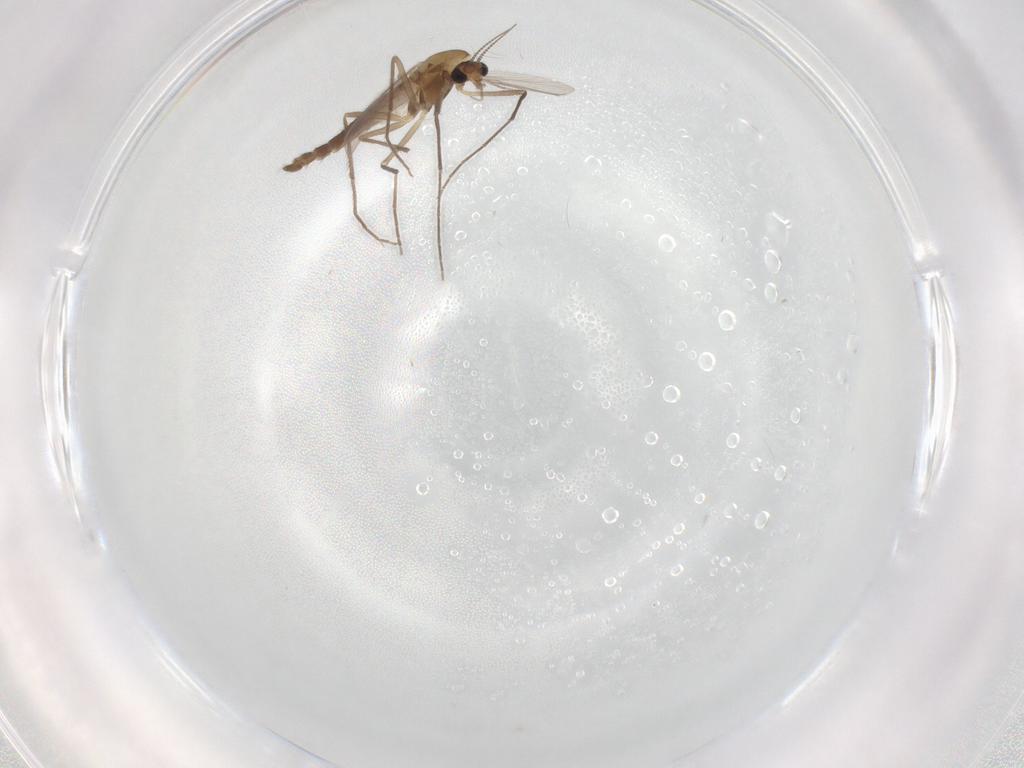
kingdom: Animalia
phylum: Arthropoda
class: Insecta
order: Diptera
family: Chironomidae
